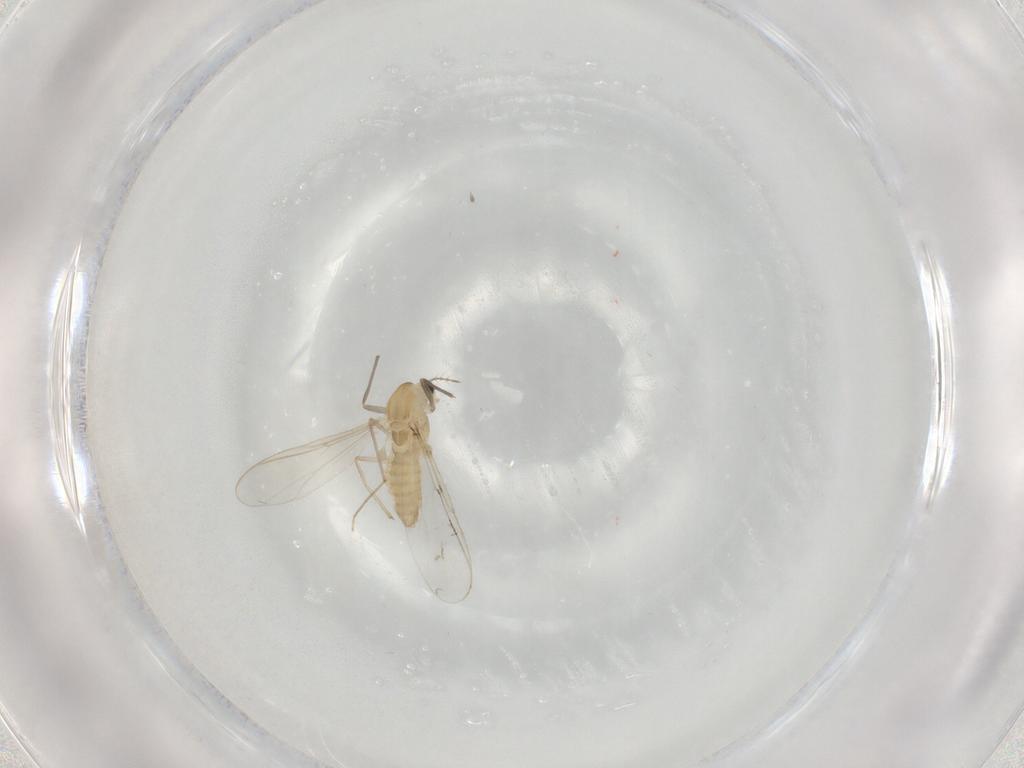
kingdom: Animalia
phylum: Arthropoda
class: Insecta
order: Diptera
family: Chironomidae
